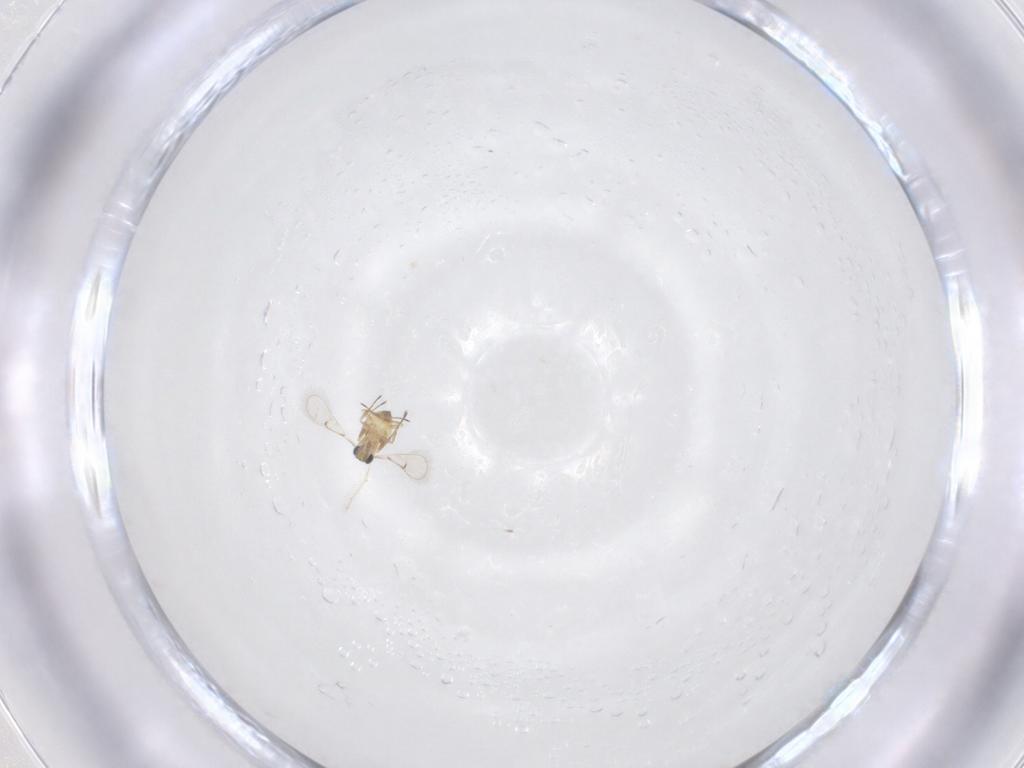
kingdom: Animalia
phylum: Arthropoda
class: Insecta
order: Hymenoptera
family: Trichogrammatidae
